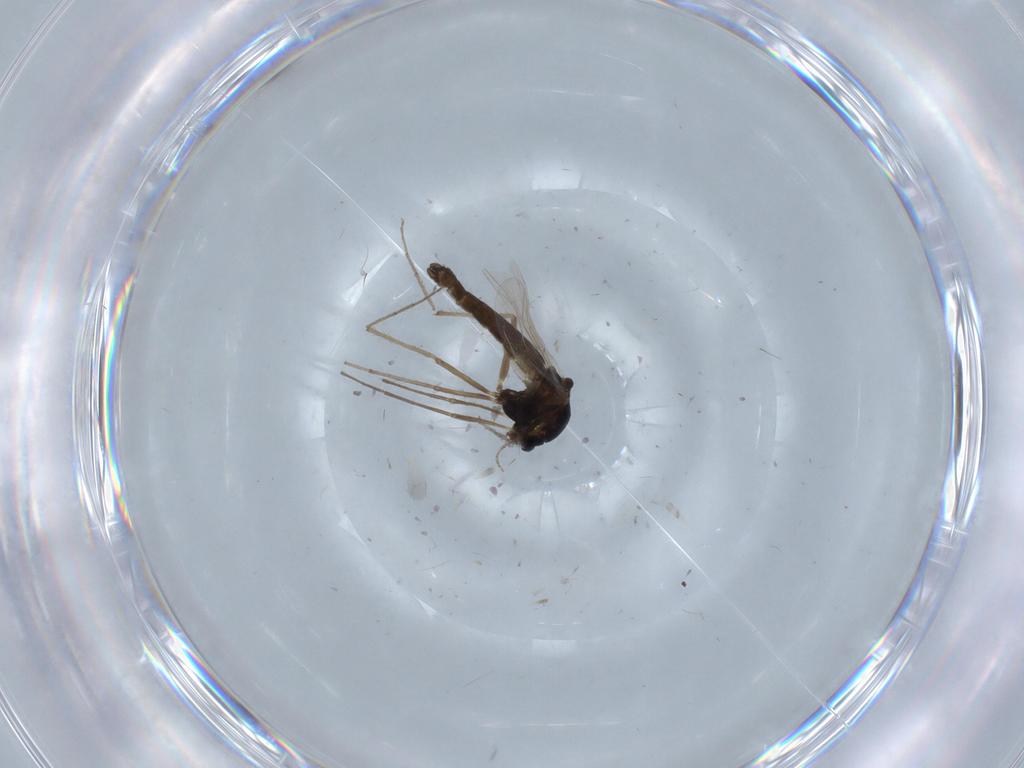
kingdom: Animalia
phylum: Arthropoda
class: Insecta
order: Diptera
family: Chironomidae
